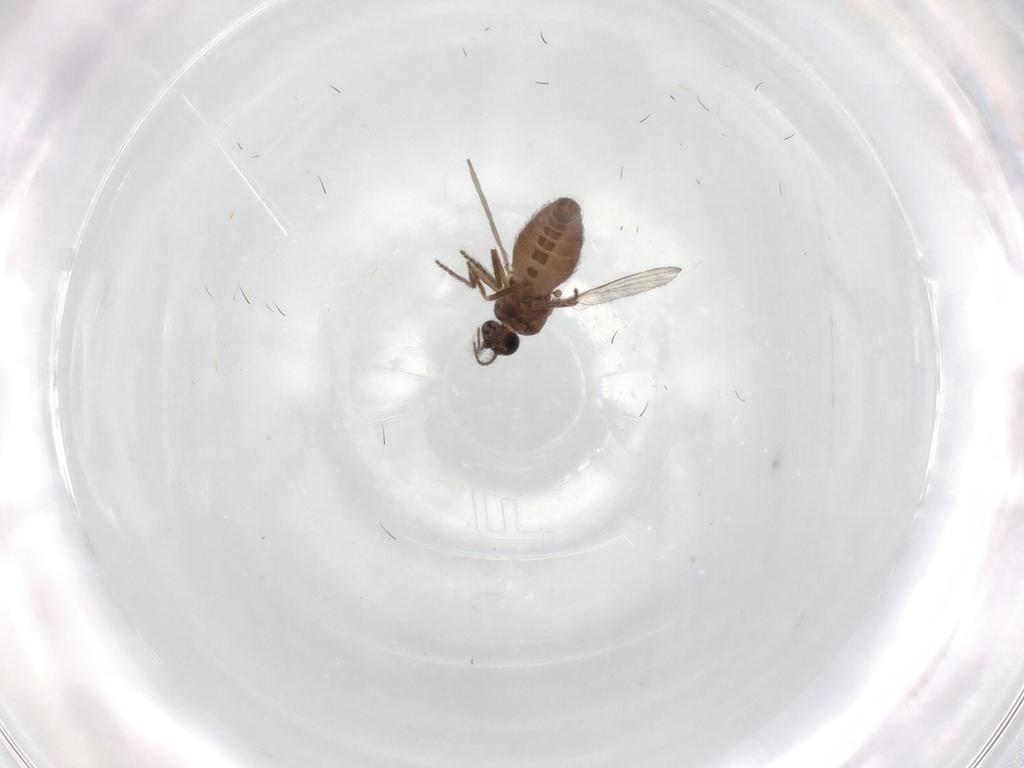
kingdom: Animalia
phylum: Arthropoda
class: Insecta
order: Diptera
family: Ceratopogonidae
